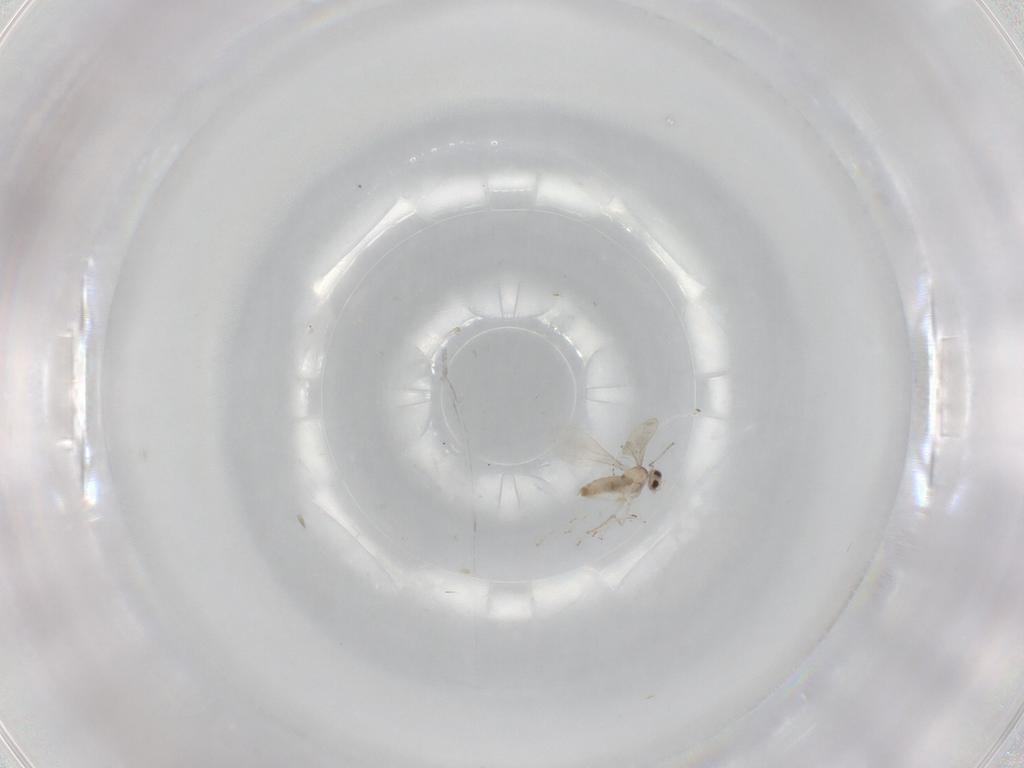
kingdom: Animalia
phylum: Arthropoda
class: Insecta
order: Diptera
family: Cecidomyiidae
